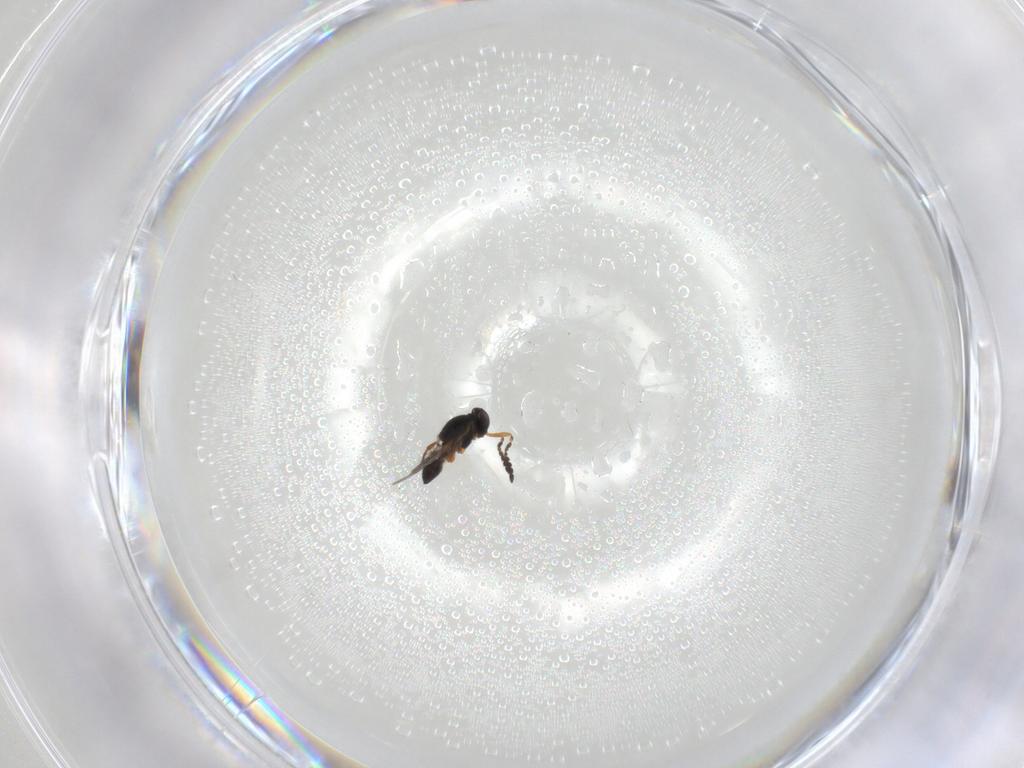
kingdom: Animalia
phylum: Arthropoda
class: Insecta
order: Hymenoptera
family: Platygastridae
